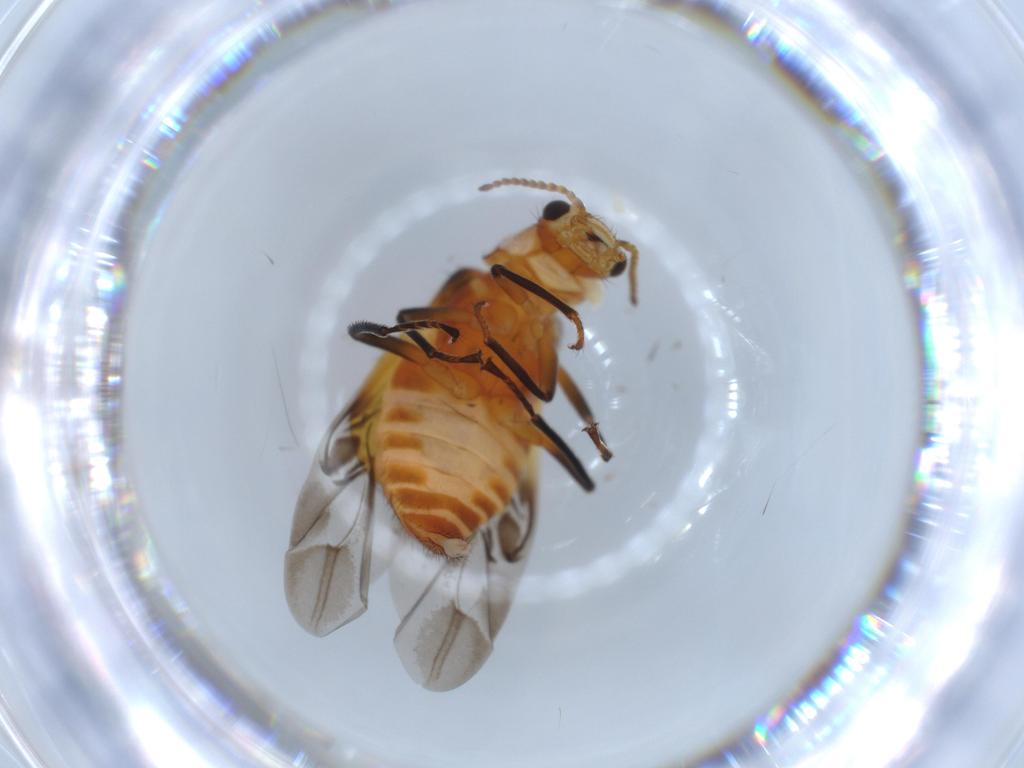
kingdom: Animalia
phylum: Arthropoda
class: Insecta
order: Coleoptera
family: Melyridae
